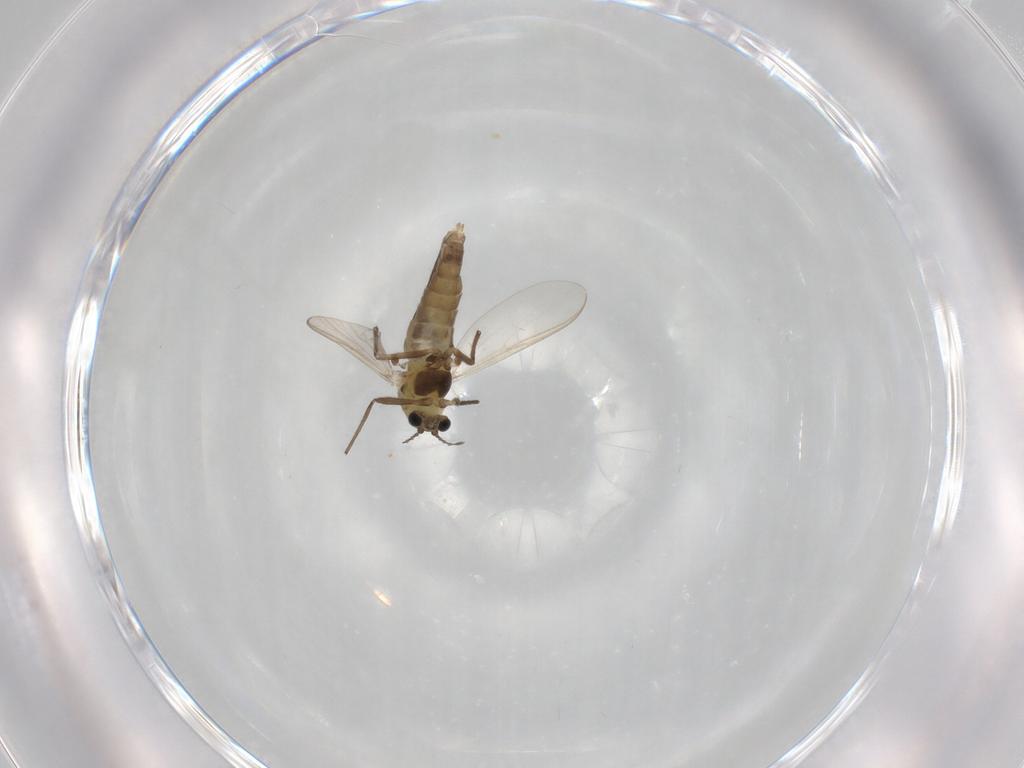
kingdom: Animalia
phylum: Arthropoda
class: Insecta
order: Diptera
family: Chironomidae
